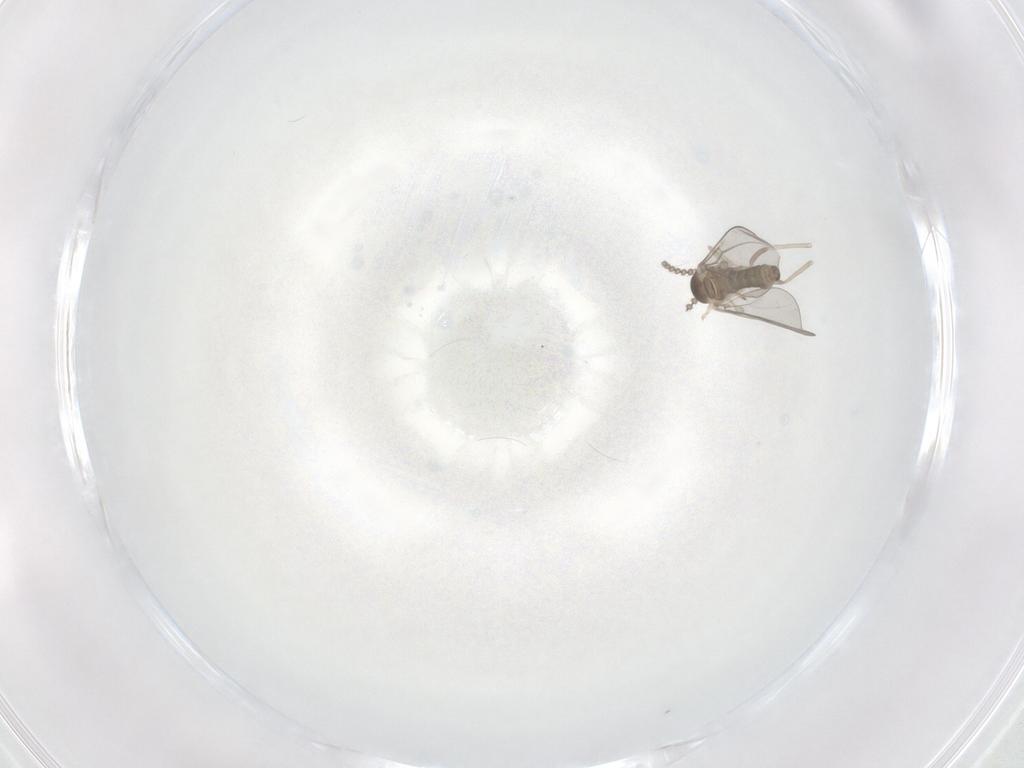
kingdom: Animalia
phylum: Arthropoda
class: Insecta
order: Diptera
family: Cecidomyiidae
